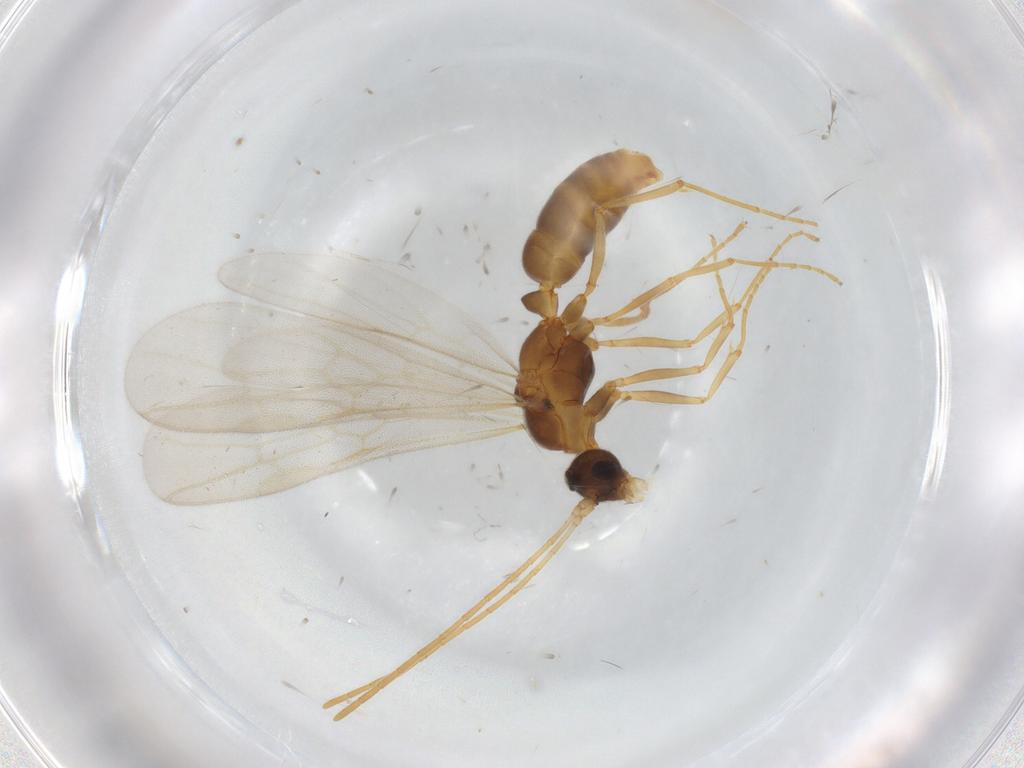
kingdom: Animalia
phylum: Arthropoda
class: Insecta
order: Hymenoptera
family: Formicidae
